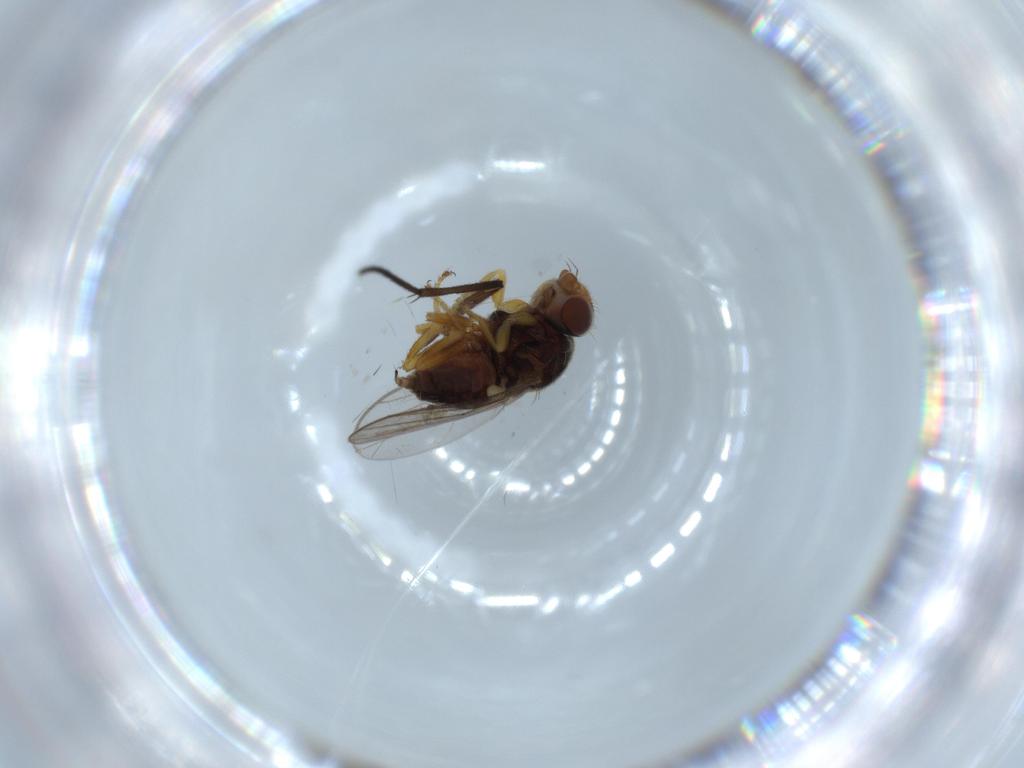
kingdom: Animalia
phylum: Arthropoda
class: Insecta
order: Diptera
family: Chloropidae
